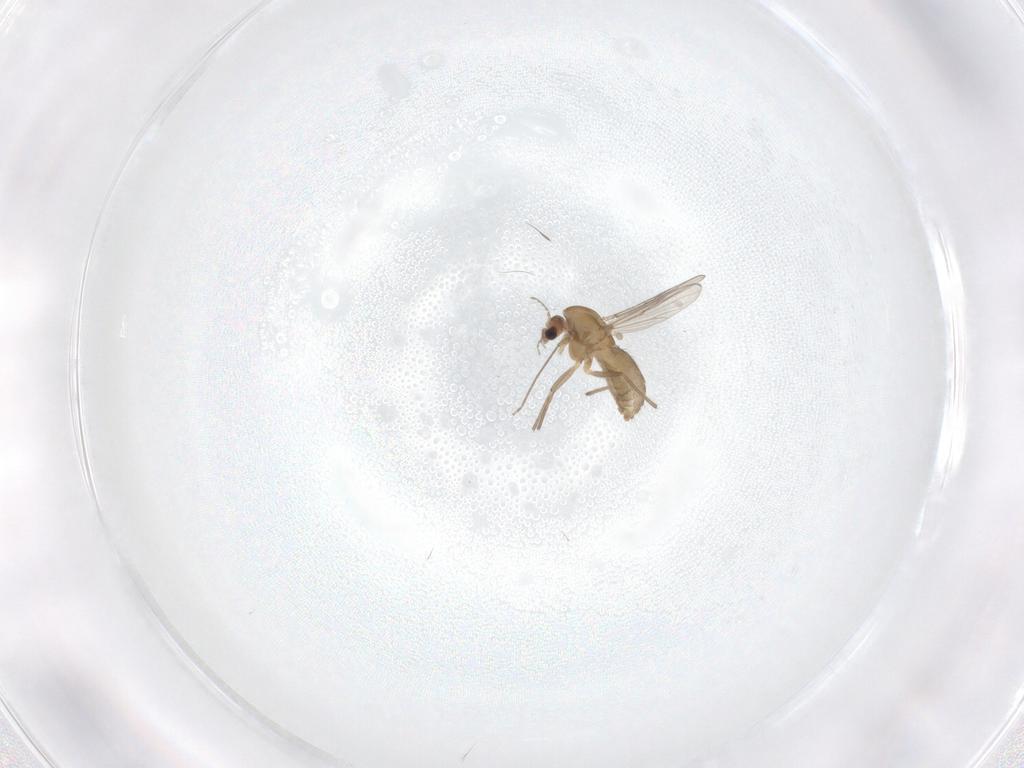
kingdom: Animalia
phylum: Arthropoda
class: Insecta
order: Diptera
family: Chironomidae
